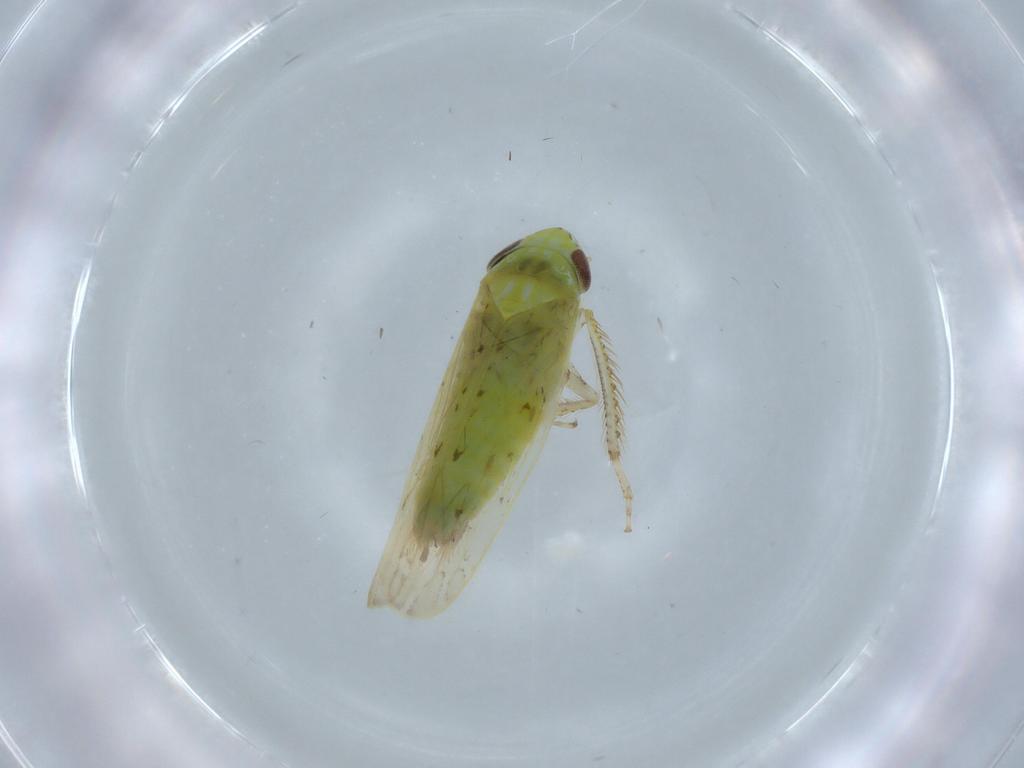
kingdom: Animalia
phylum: Arthropoda
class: Insecta
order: Hemiptera
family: Cicadellidae
